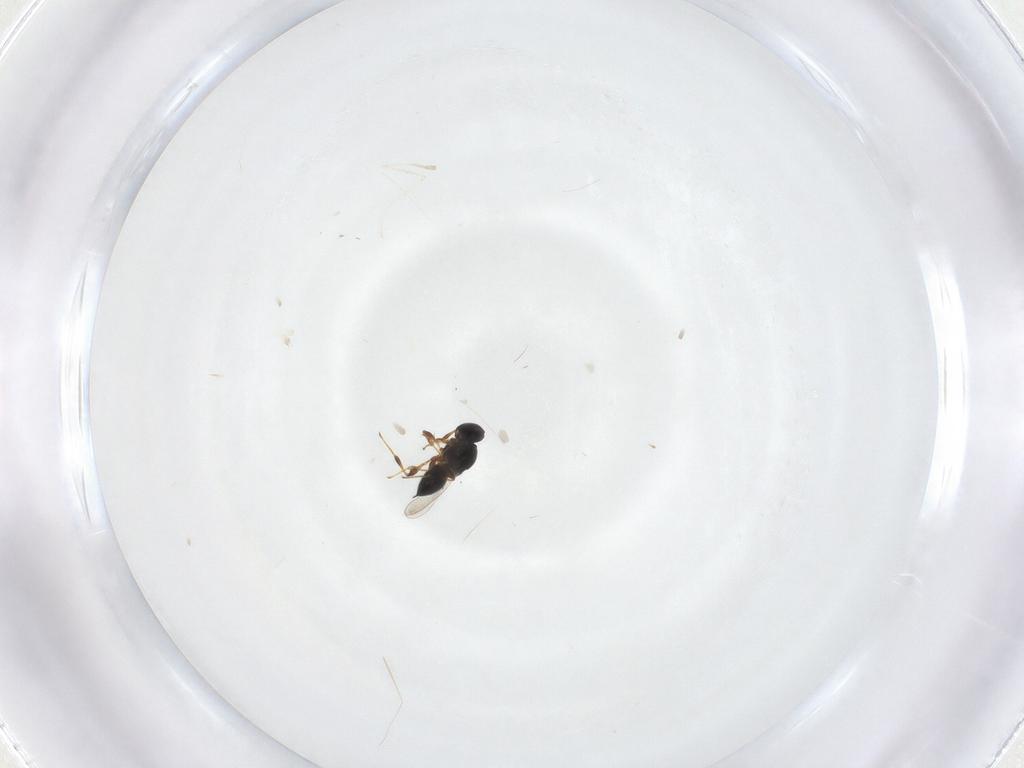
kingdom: Animalia
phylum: Arthropoda
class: Insecta
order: Hymenoptera
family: Platygastridae
